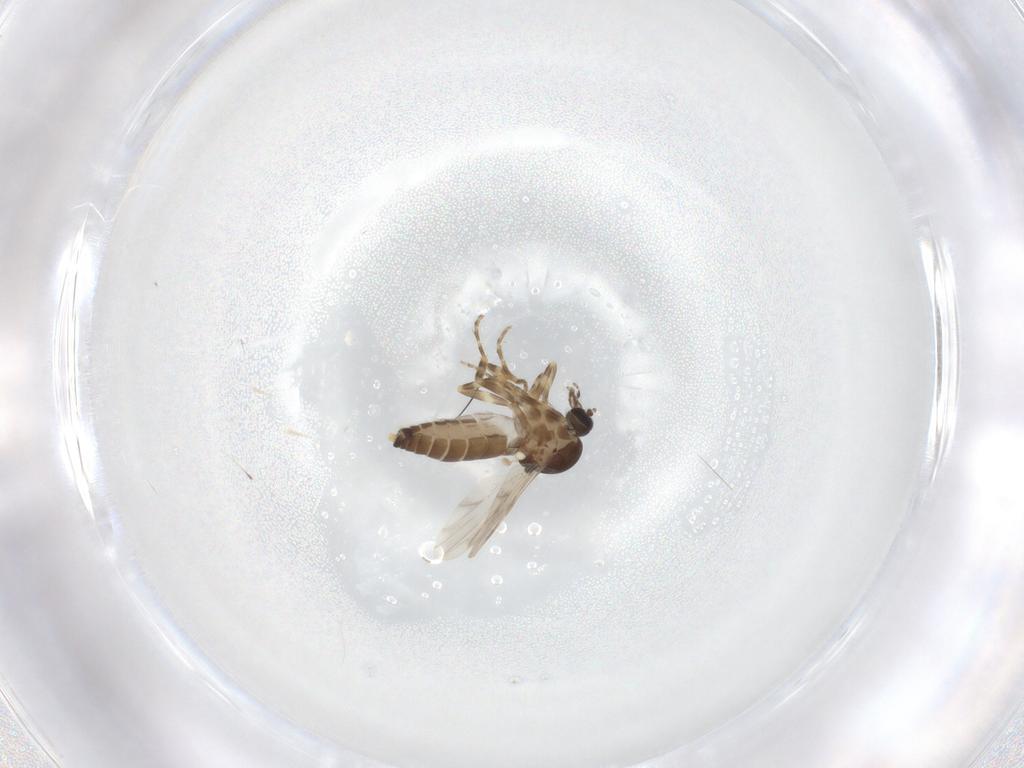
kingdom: Animalia
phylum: Arthropoda
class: Insecta
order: Diptera
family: Ceratopogonidae
